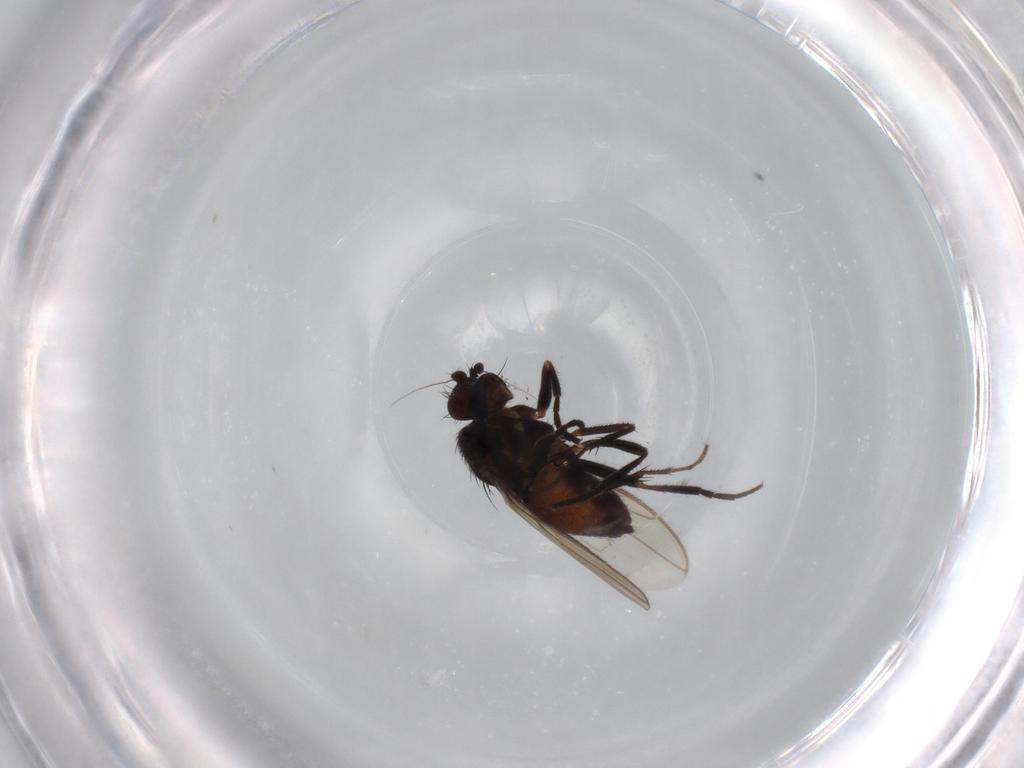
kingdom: Animalia
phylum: Arthropoda
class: Insecta
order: Diptera
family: Sphaeroceridae
